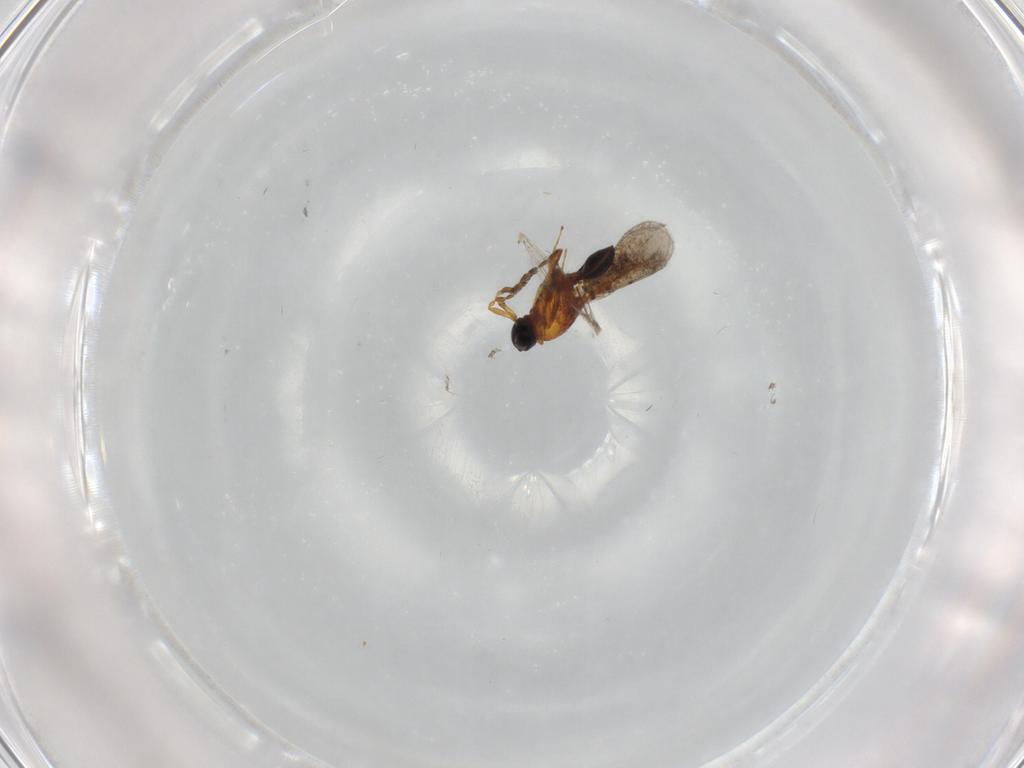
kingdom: Animalia
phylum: Arthropoda
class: Insecta
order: Hymenoptera
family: Platygastridae
